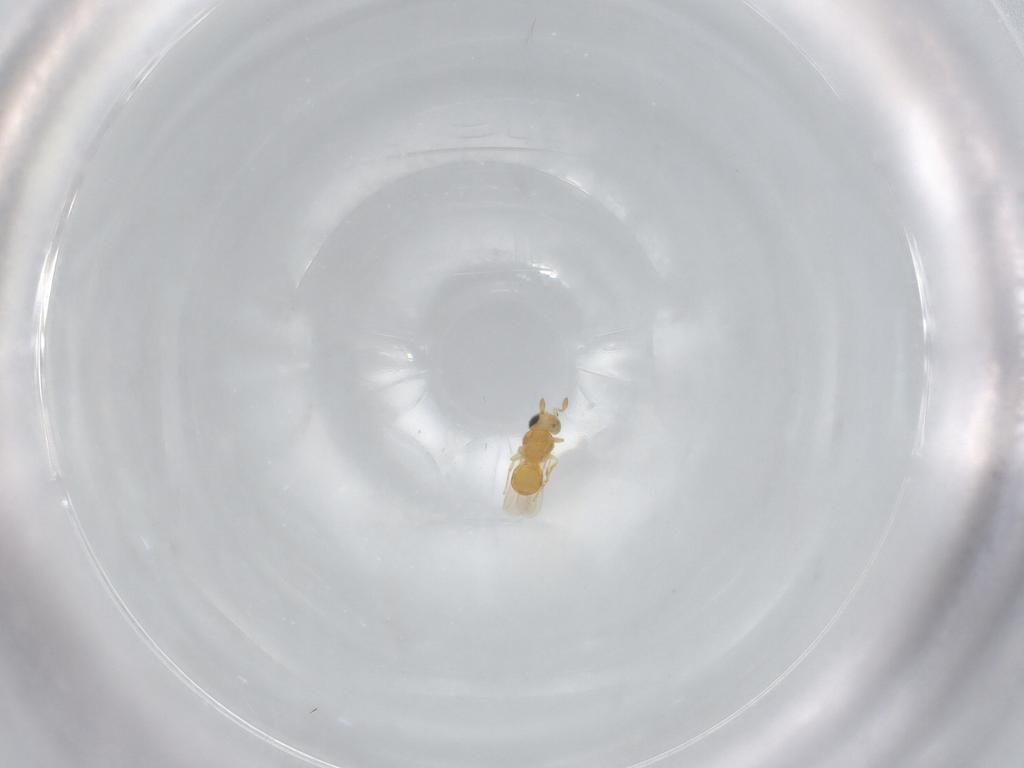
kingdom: Animalia
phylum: Arthropoda
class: Insecta
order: Hymenoptera
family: Scelionidae
